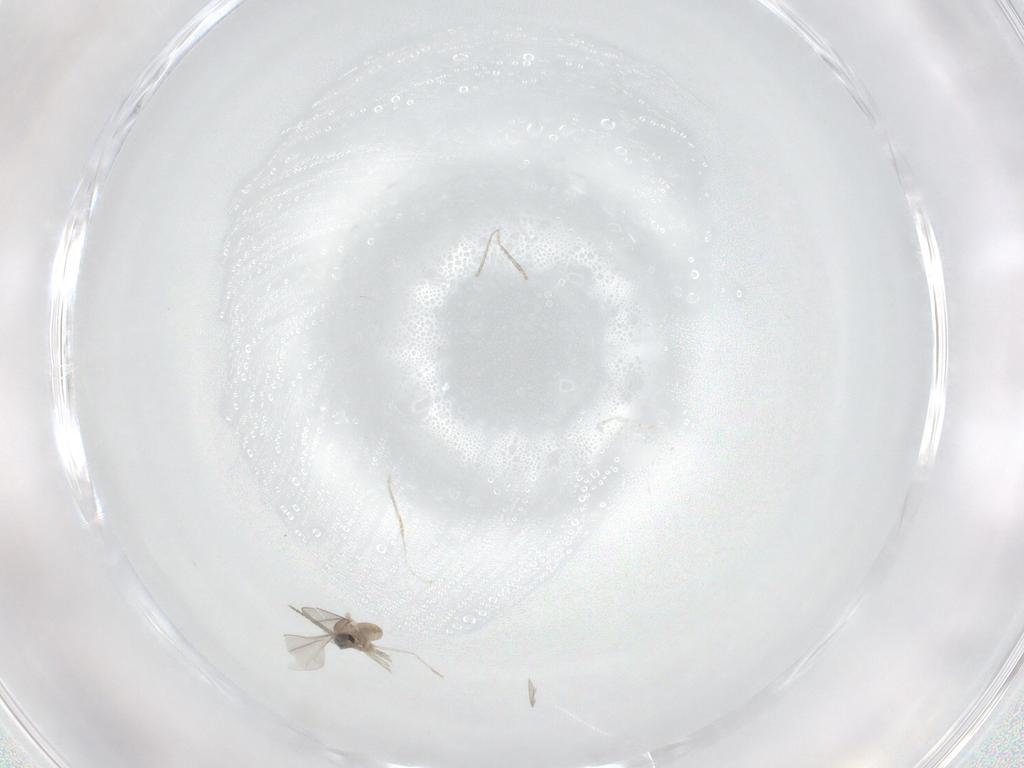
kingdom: Animalia
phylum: Arthropoda
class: Insecta
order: Diptera
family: Cecidomyiidae
